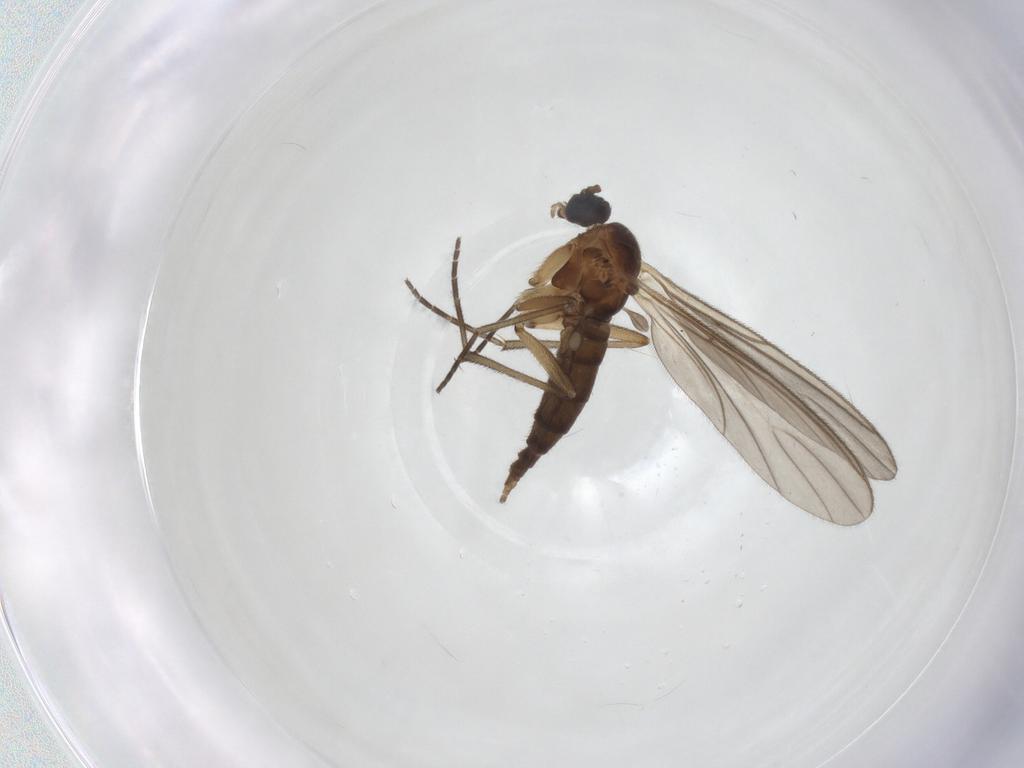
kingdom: Animalia
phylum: Arthropoda
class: Insecta
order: Diptera
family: Sciaridae
